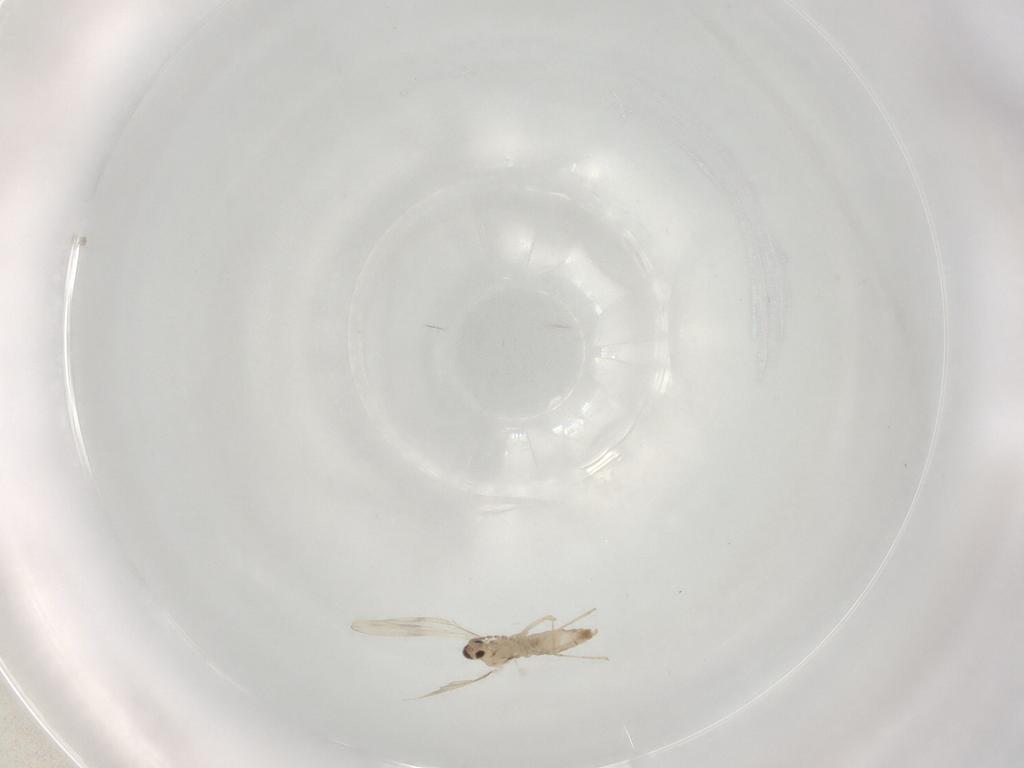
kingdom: Animalia
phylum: Arthropoda
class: Insecta
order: Diptera
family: Cecidomyiidae
